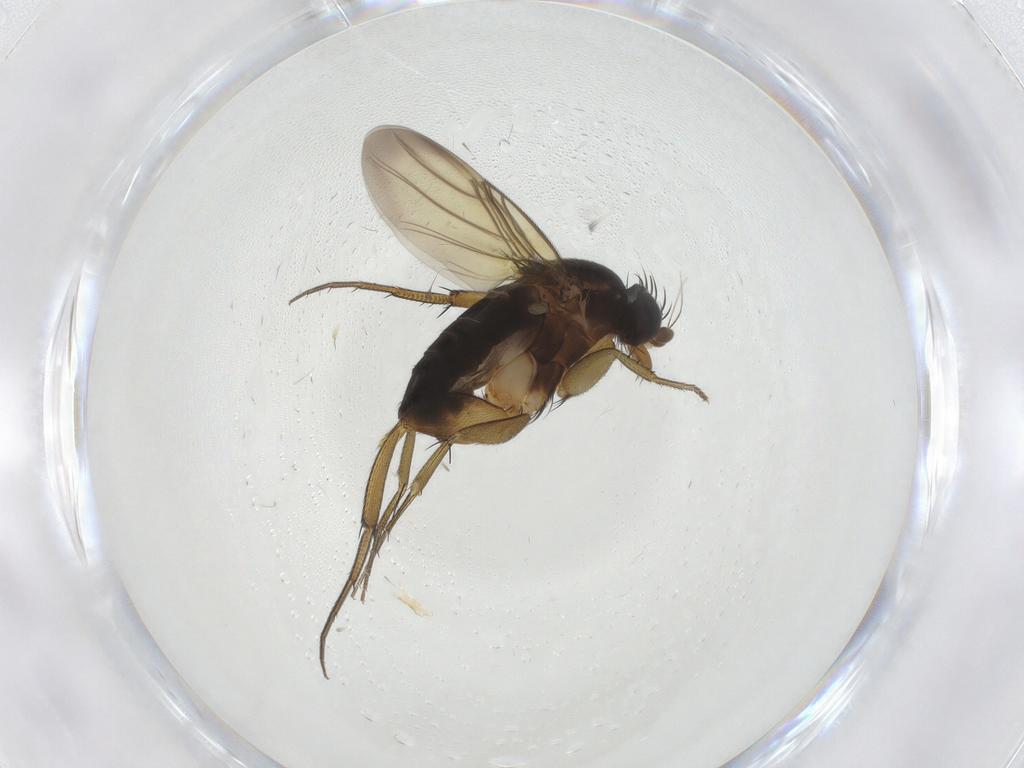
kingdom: Animalia
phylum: Arthropoda
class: Insecta
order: Diptera
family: Phoridae
